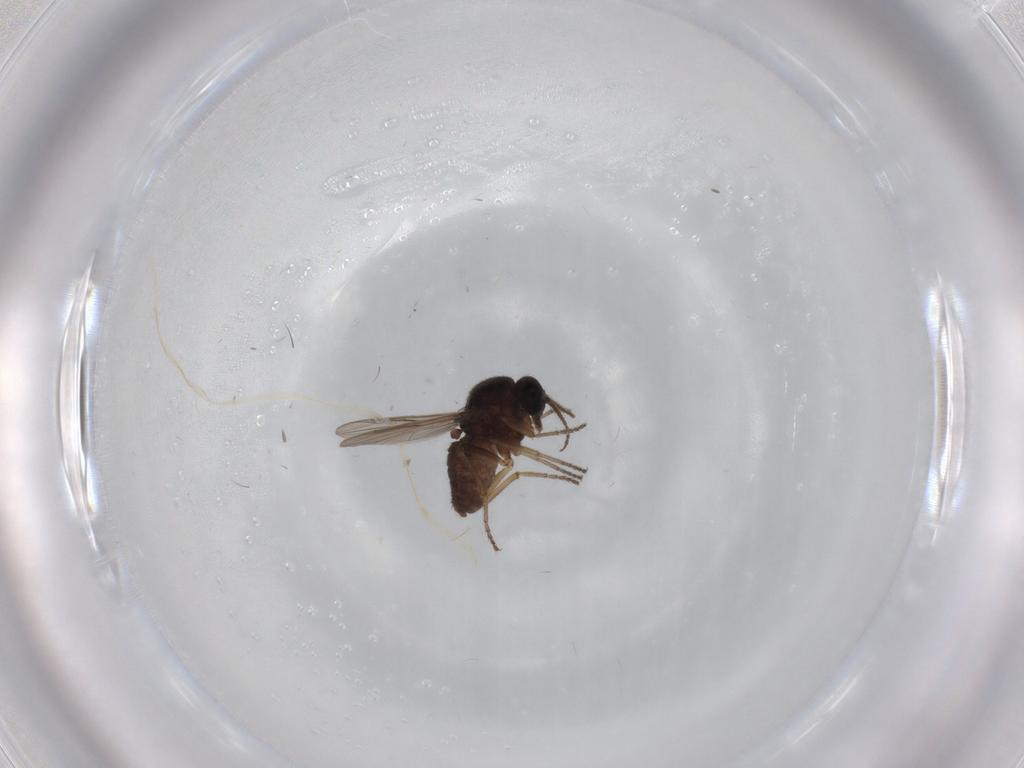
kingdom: Animalia
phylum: Arthropoda
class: Insecta
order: Diptera
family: Ceratopogonidae
